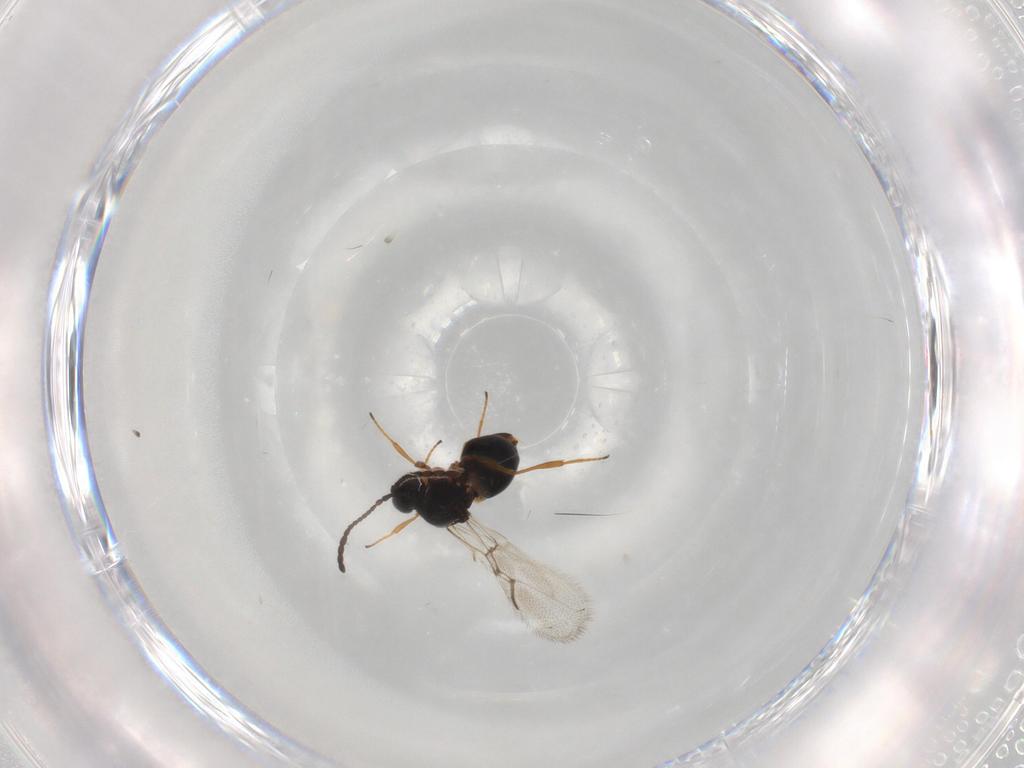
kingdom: Animalia
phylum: Arthropoda
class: Insecta
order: Hymenoptera
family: Figitidae
